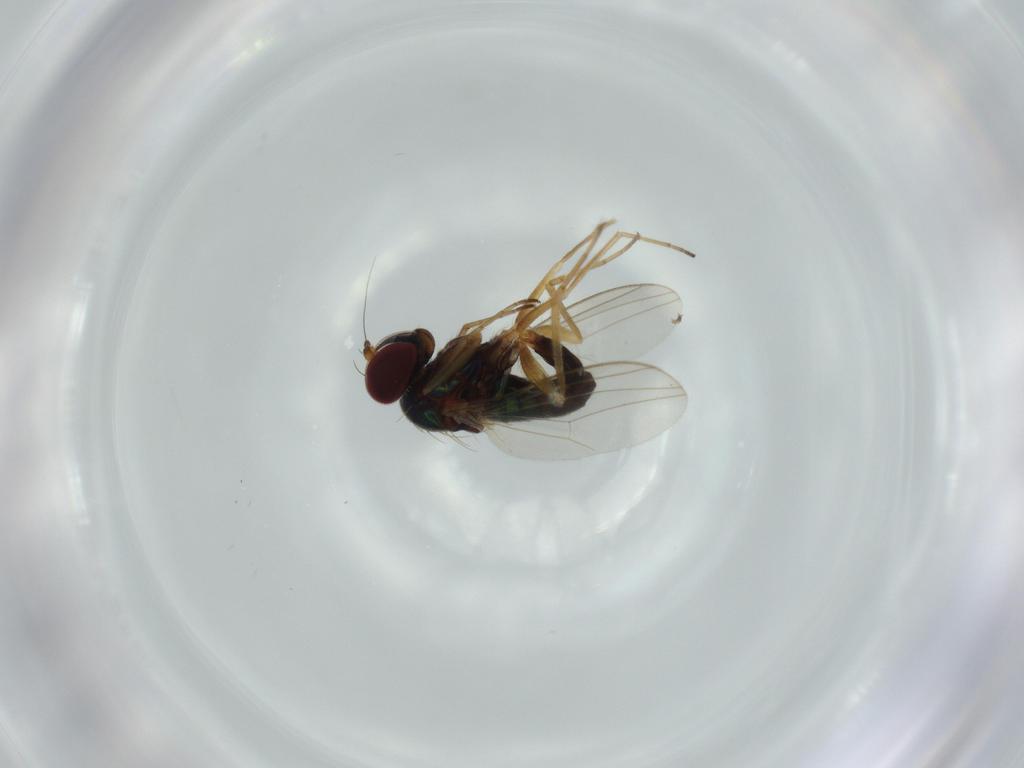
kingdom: Animalia
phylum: Arthropoda
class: Insecta
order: Diptera
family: Dolichopodidae
